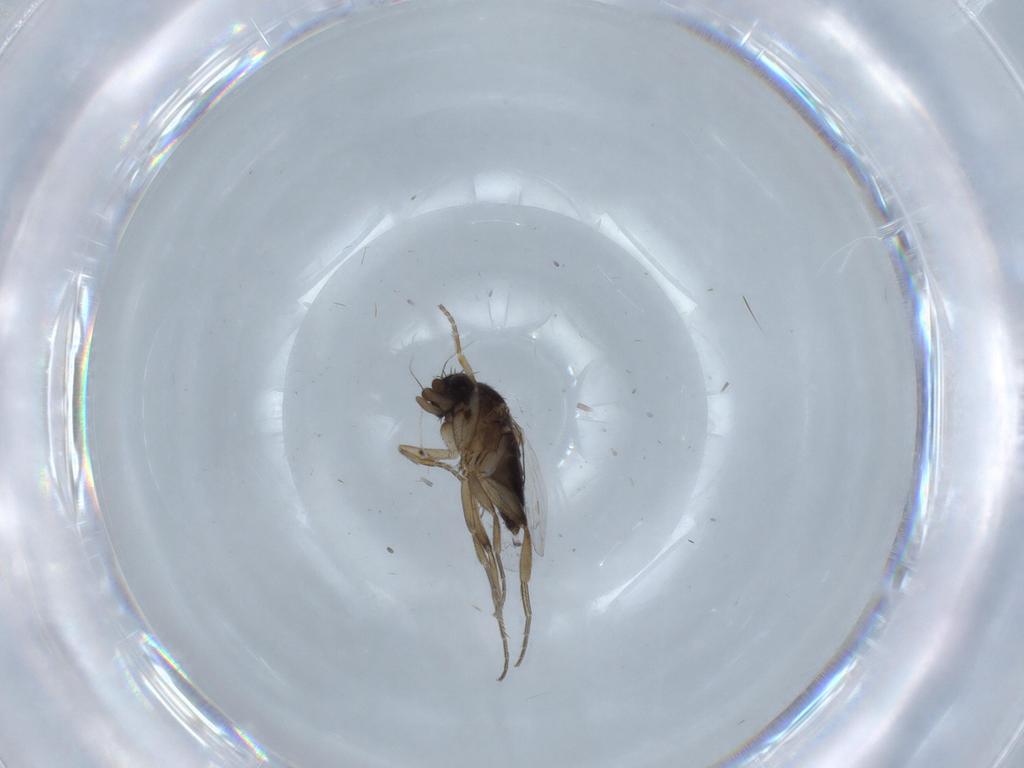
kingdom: Animalia
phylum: Arthropoda
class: Insecta
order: Diptera
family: Phoridae
